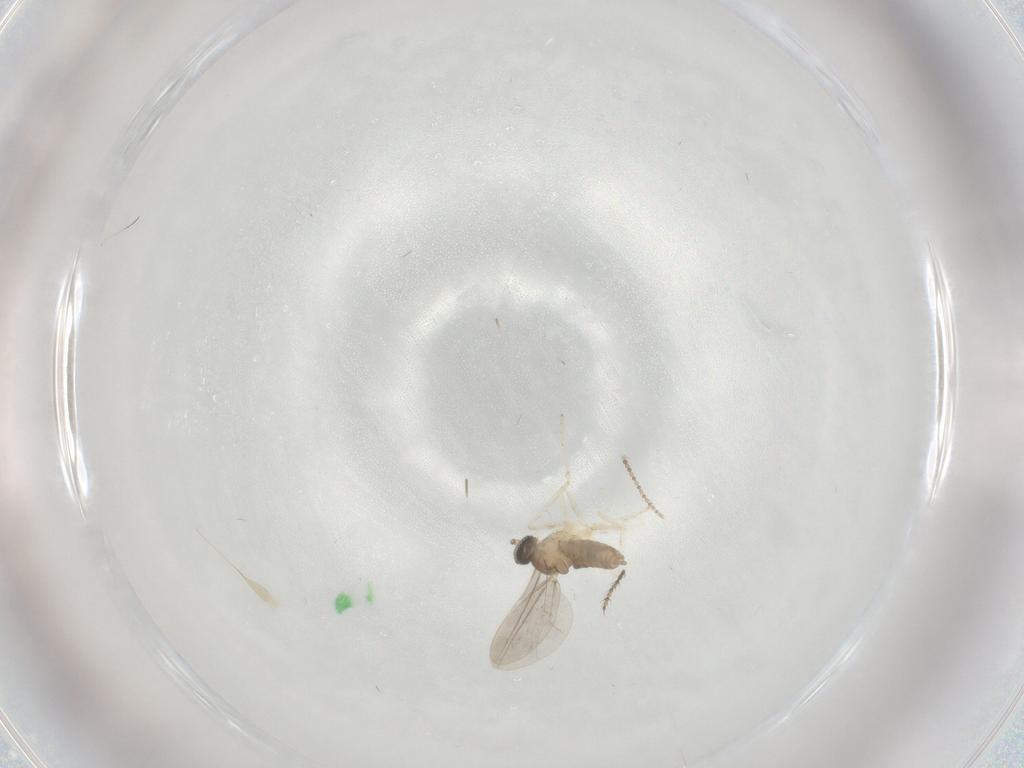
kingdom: Animalia
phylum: Arthropoda
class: Insecta
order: Diptera
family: Cecidomyiidae
